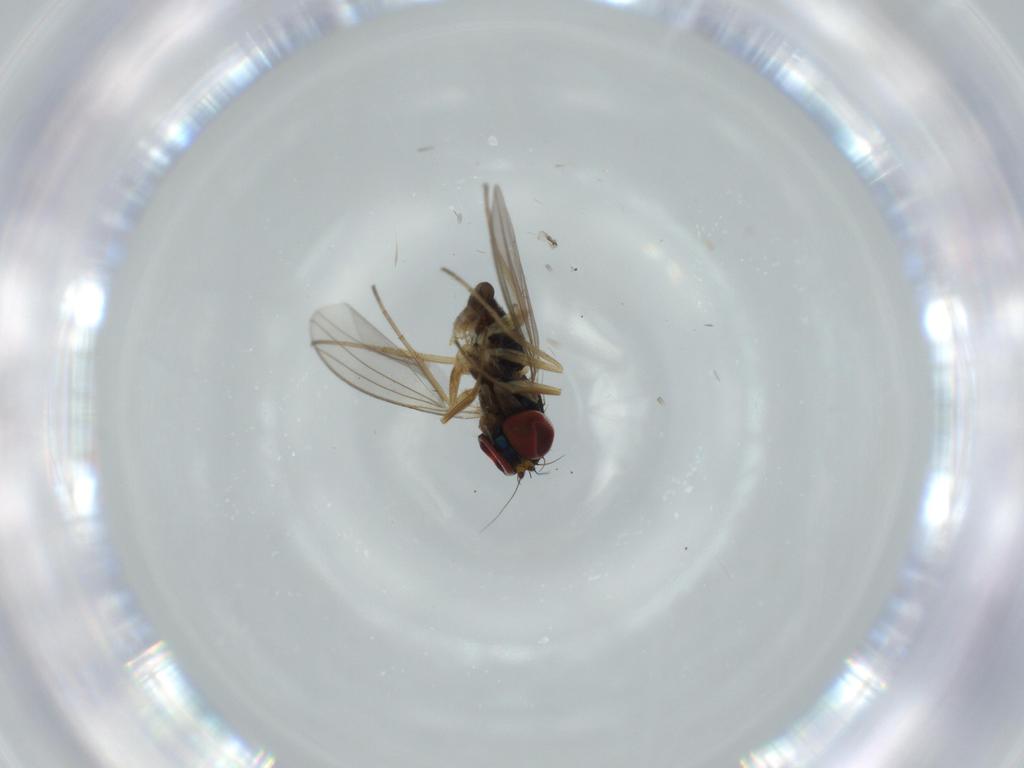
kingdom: Animalia
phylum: Arthropoda
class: Insecta
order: Diptera
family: Dolichopodidae
